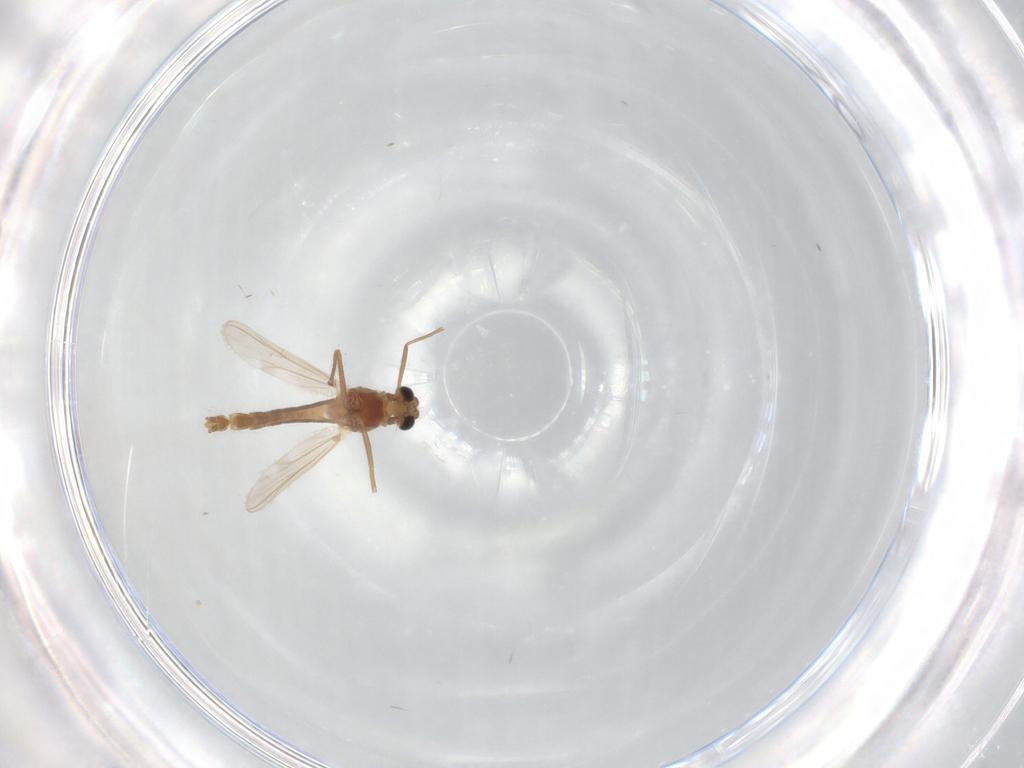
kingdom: Animalia
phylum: Arthropoda
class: Insecta
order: Diptera
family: Chironomidae
